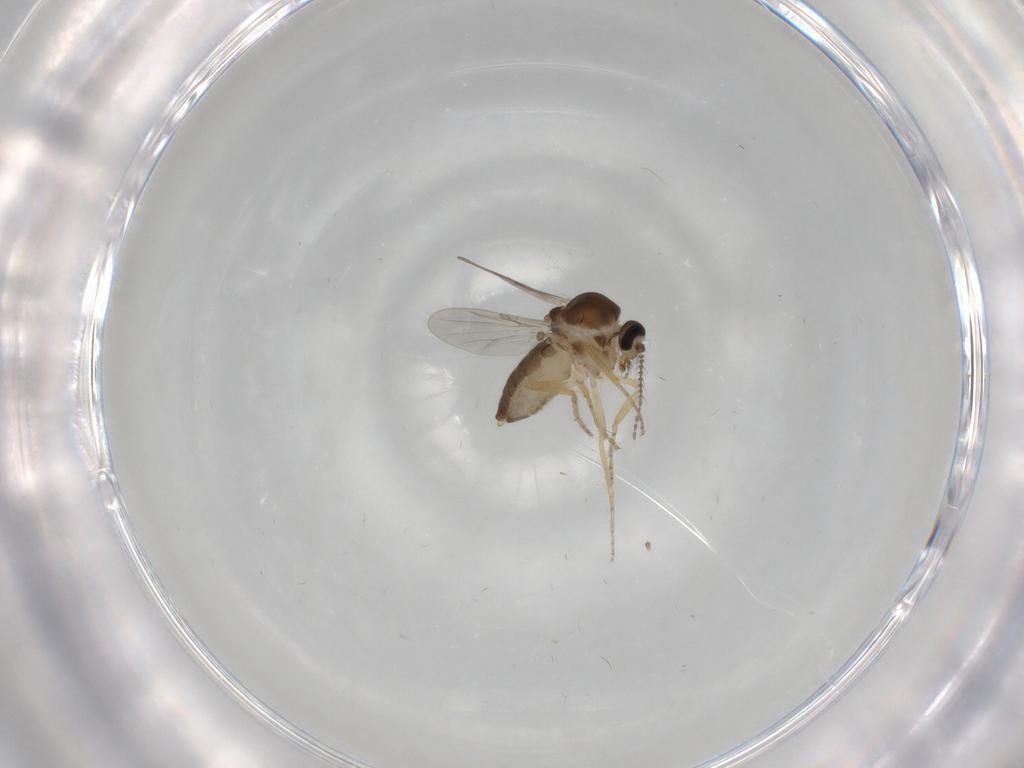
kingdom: Animalia
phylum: Arthropoda
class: Insecta
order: Diptera
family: Ceratopogonidae
